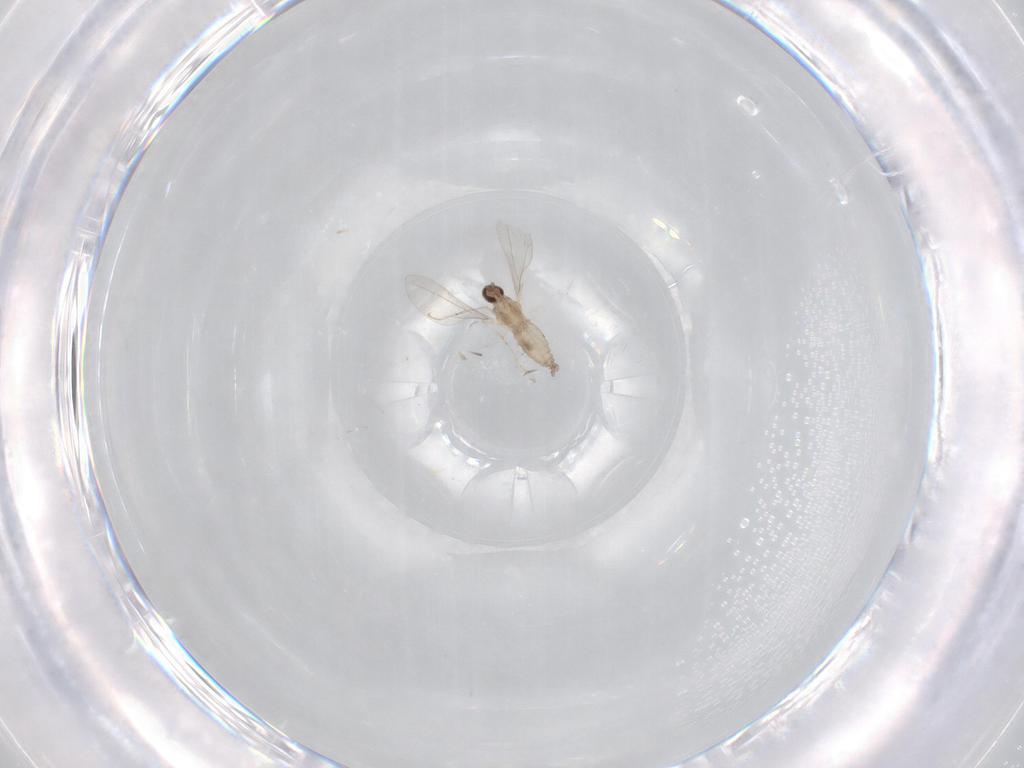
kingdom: Animalia
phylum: Arthropoda
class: Insecta
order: Diptera
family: Cecidomyiidae
